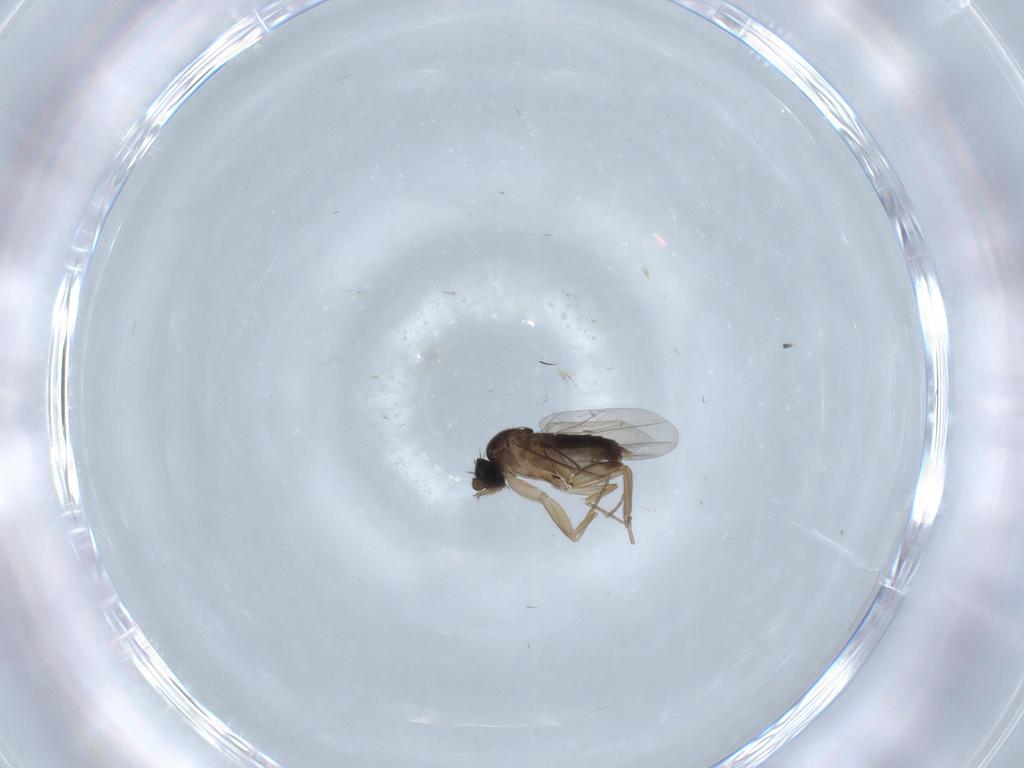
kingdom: Animalia
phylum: Arthropoda
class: Insecta
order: Diptera
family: Phoridae
